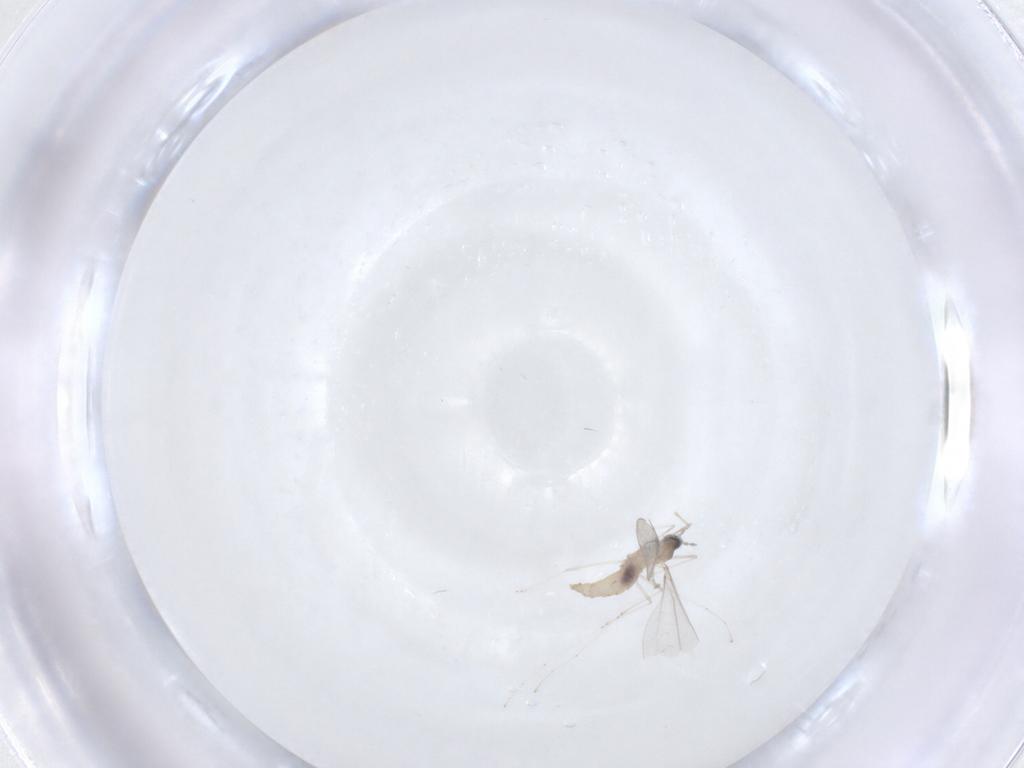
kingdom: Animalia
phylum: Arthropoda
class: Insecta
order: Diptera
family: Cecidomyiidae
